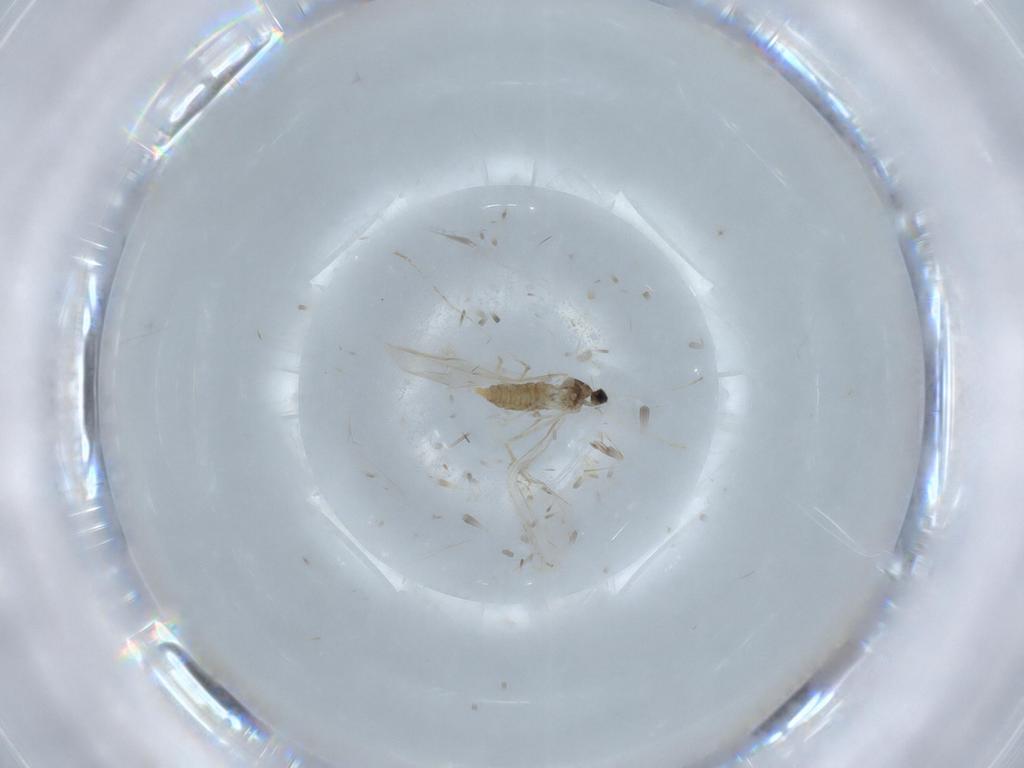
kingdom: Animalia
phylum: Arthropoda
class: Insecta
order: Diptera
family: Cecidomyiidae
